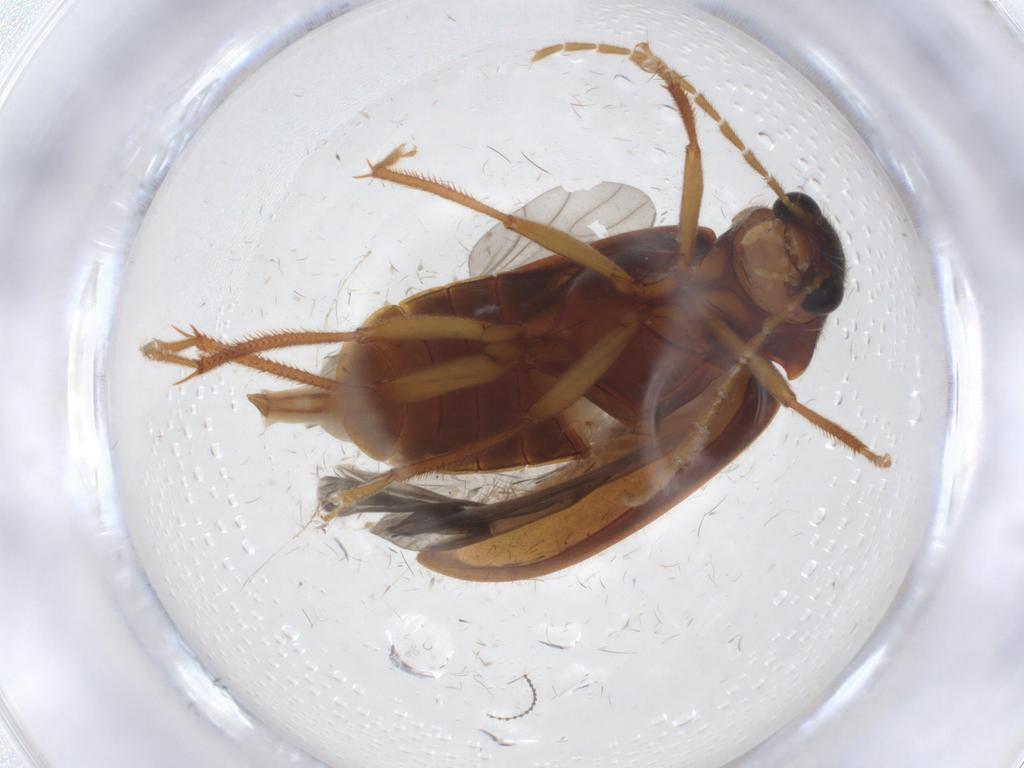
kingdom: Animalia
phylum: Arthropoda
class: Insecta
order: Coleoptera
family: Ptilodactylidae
